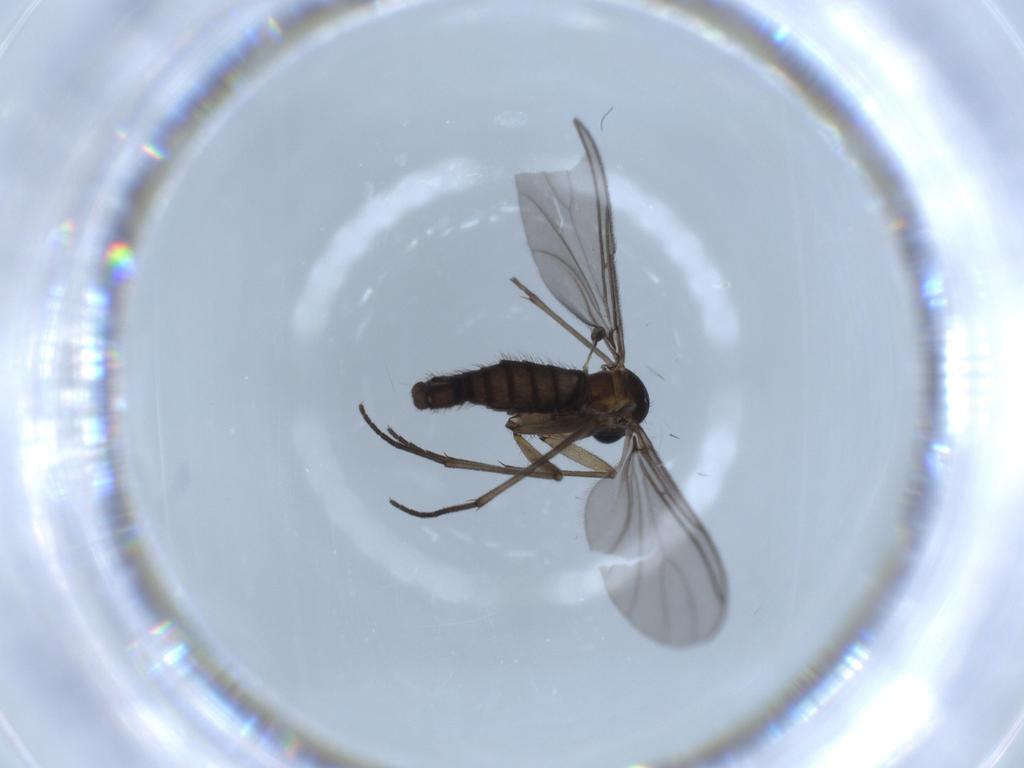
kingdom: Animalia
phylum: Arthropoda
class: Insecta
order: Diptera
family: Sciaridae
